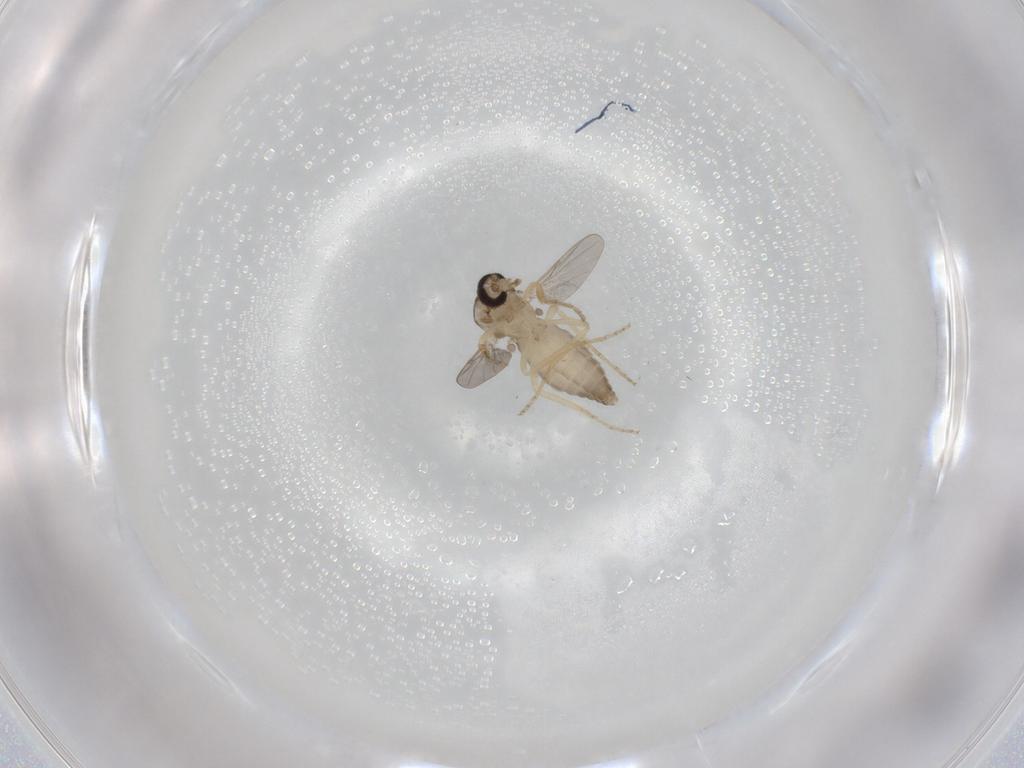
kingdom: Animalia
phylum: Arthropoda
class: Insecta
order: Diptera
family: Ceratopogonidae
